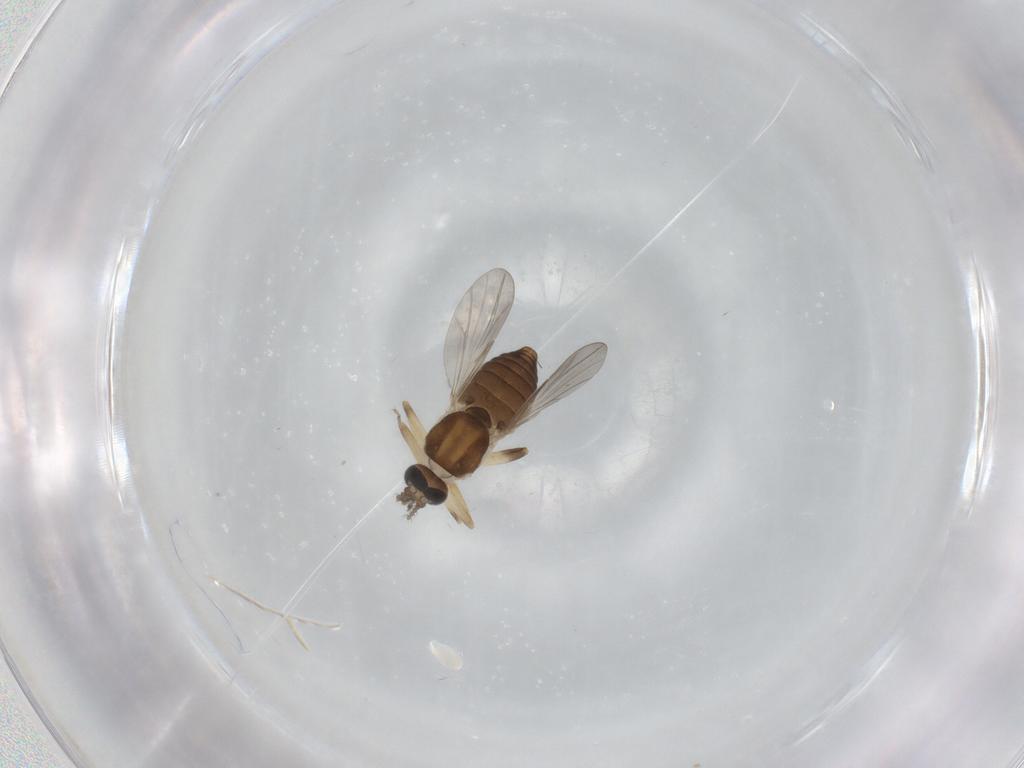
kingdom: Animalia
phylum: Arthropoda
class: Insecta
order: Diptera
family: Ceratopogonidae
